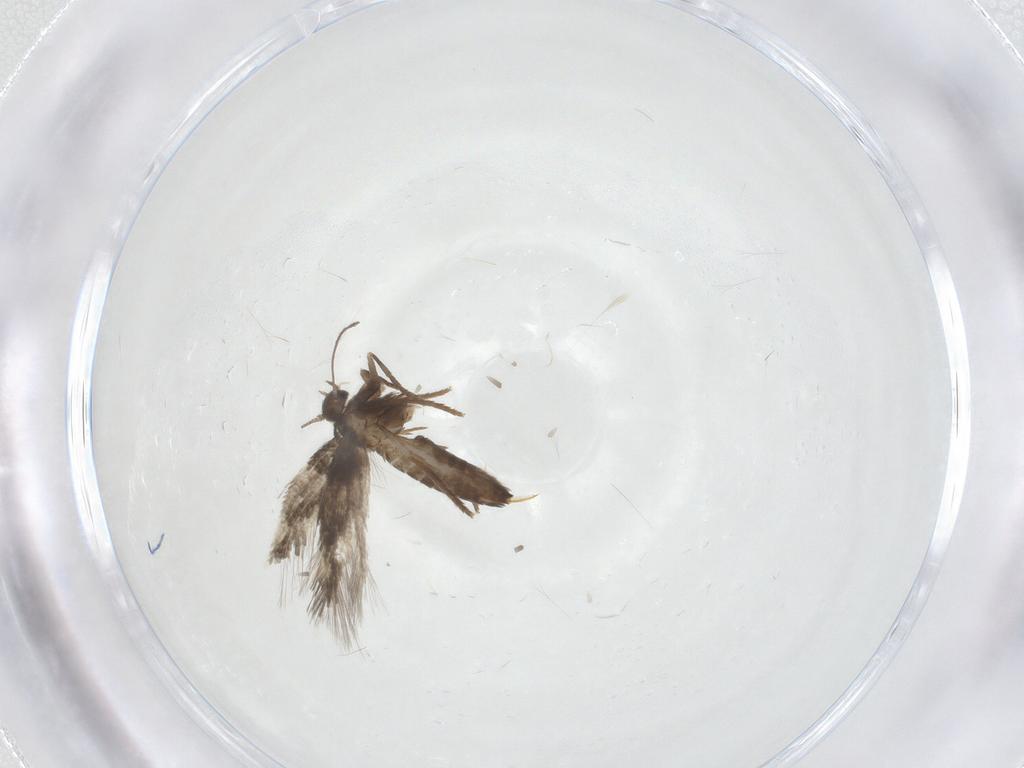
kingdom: Animalia
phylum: Arthropoda
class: Insecta
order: Lepidoptera
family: Heliozelidae
